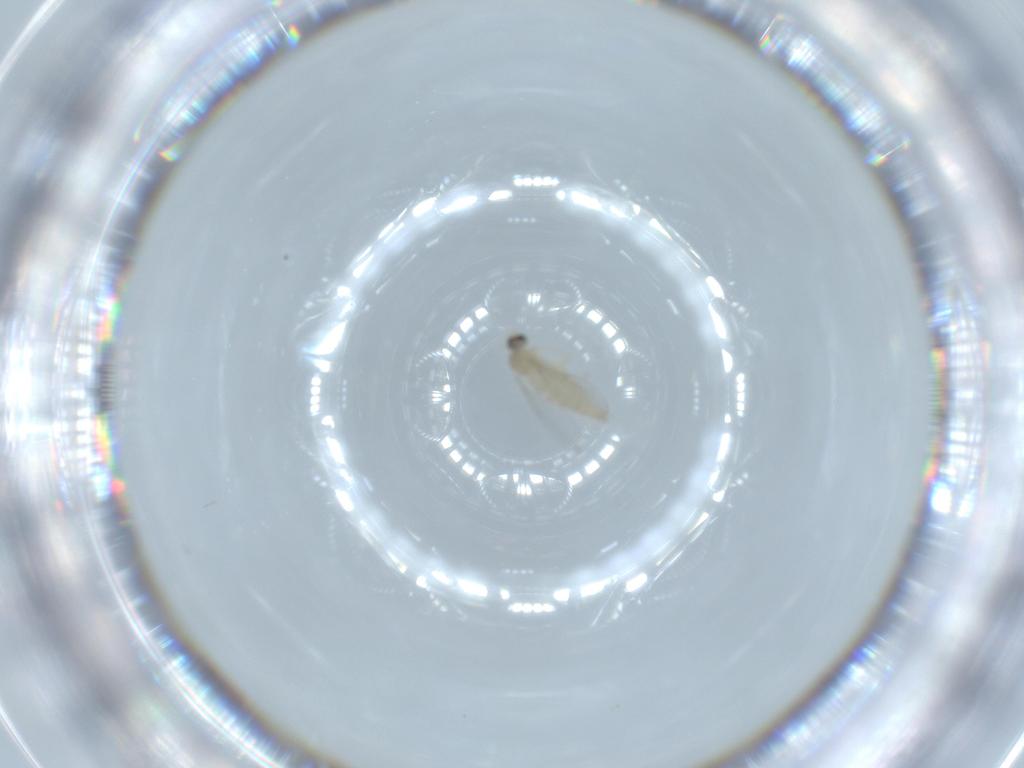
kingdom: Animalia
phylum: Arthropoda
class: Insecta
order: Diptera
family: Cecidomyiidae
